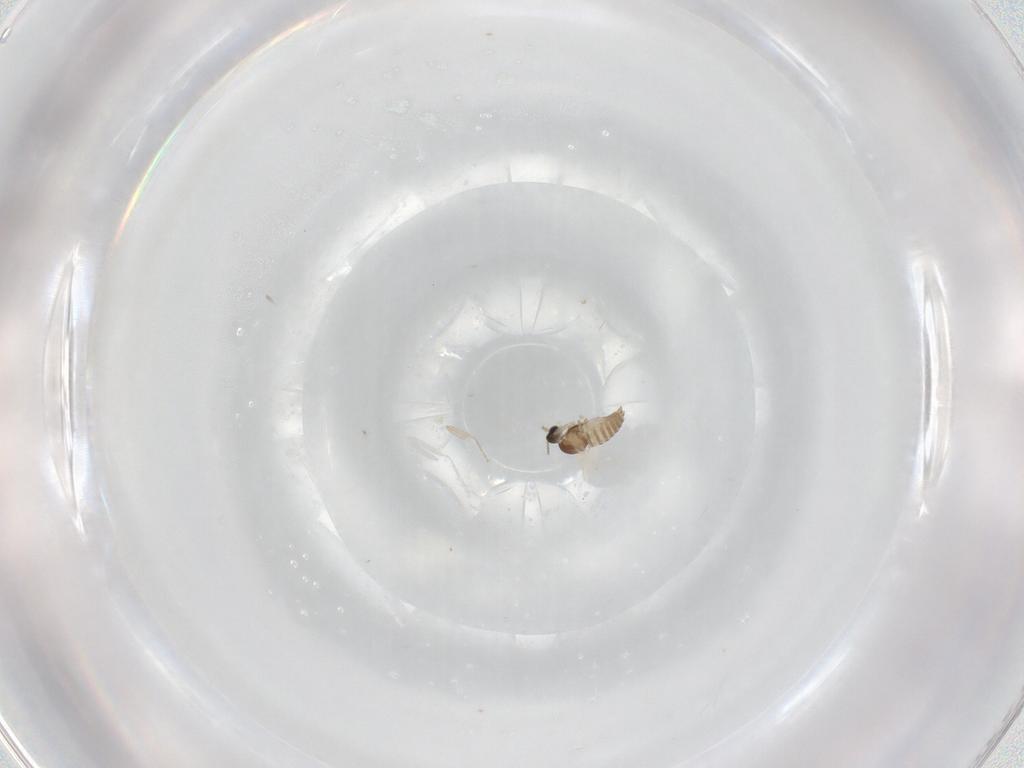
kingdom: Animalia
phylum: Arthropoda
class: Insecta
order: Diptera
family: Cecidomyiidae
